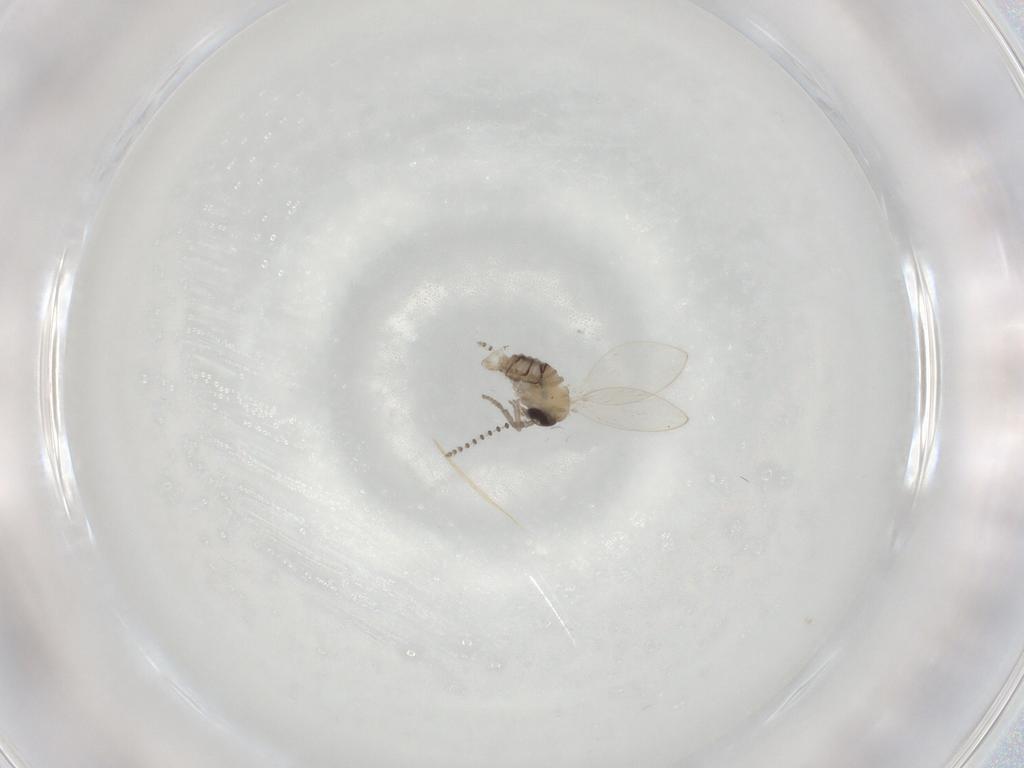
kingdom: Animalia
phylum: Arthropoda
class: Insecta
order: Diptera
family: Psychodidae
